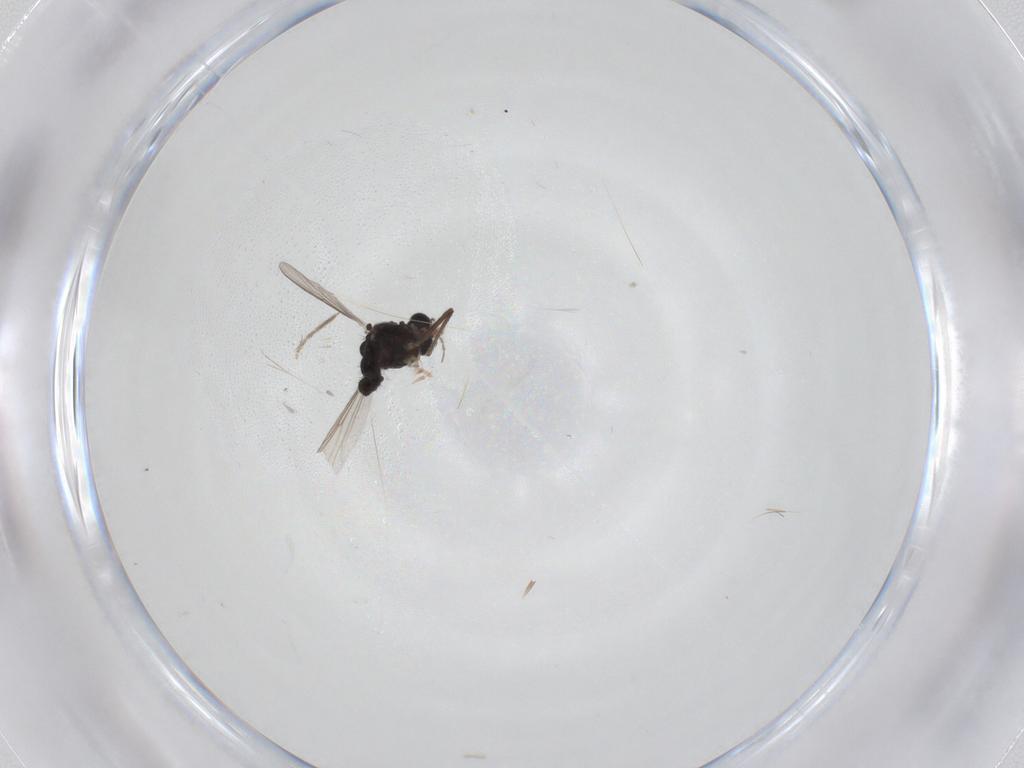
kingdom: Animalia
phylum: Arthropoda
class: Insecta
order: Diptera
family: Chironomidae
